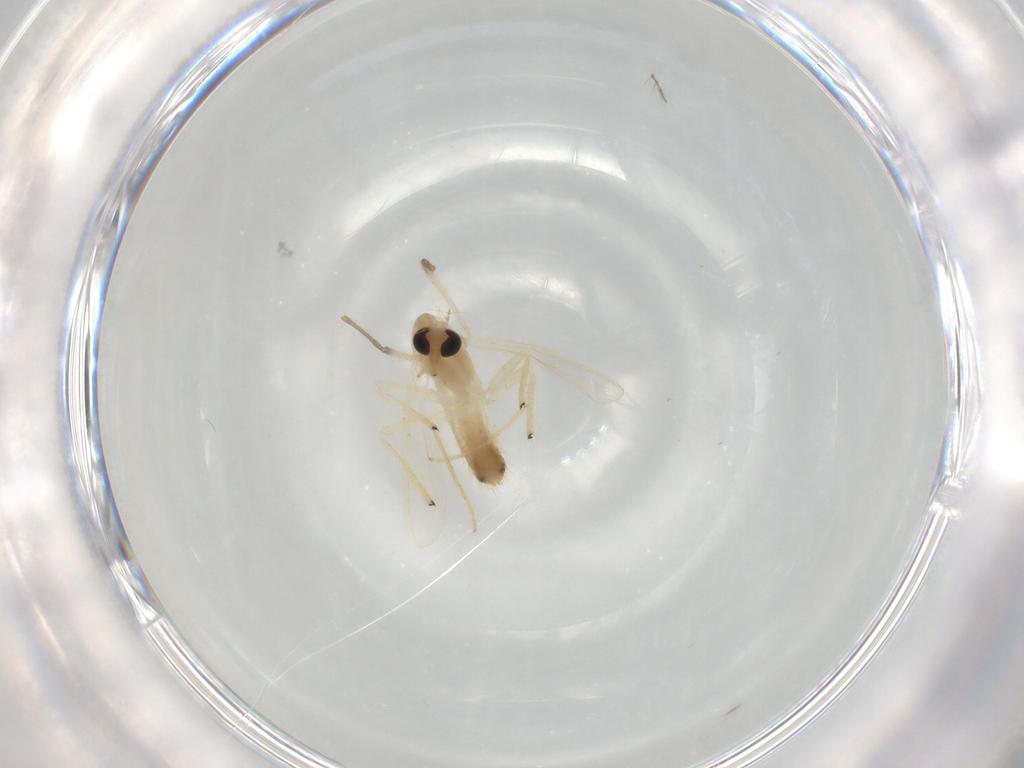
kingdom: Animalia
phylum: Arthropoda
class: Insecta
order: Diptera
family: Chironomidae
